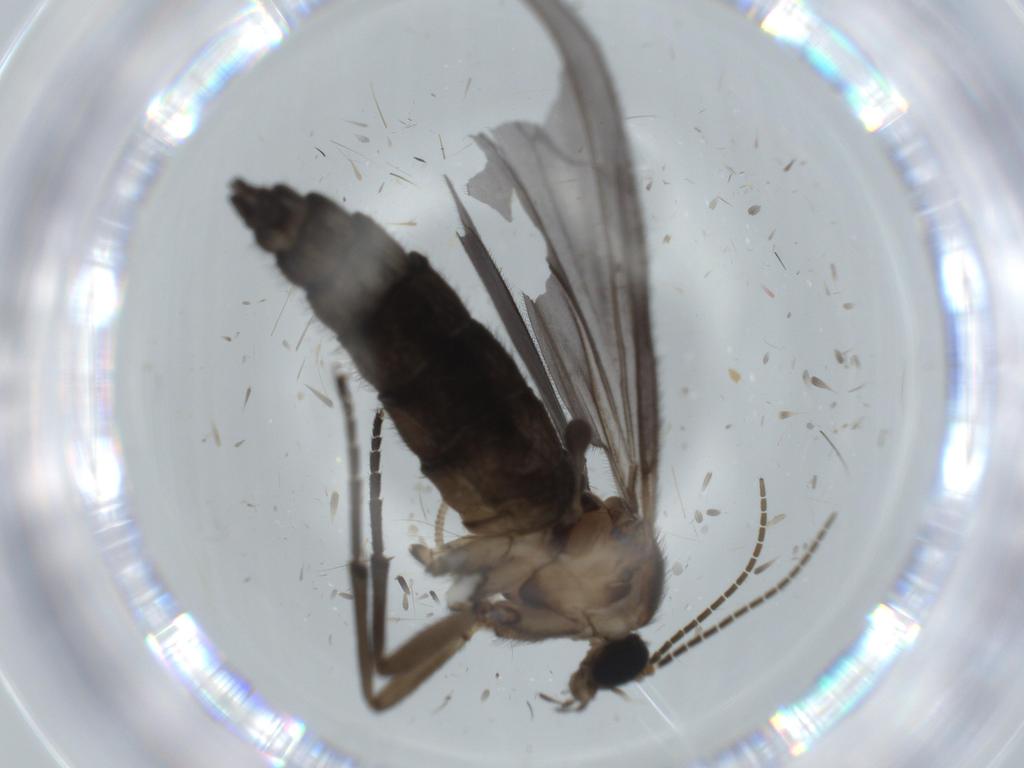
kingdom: Animalia
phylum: Arthropoda
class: Insecta
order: Diptera
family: Sciaridae
